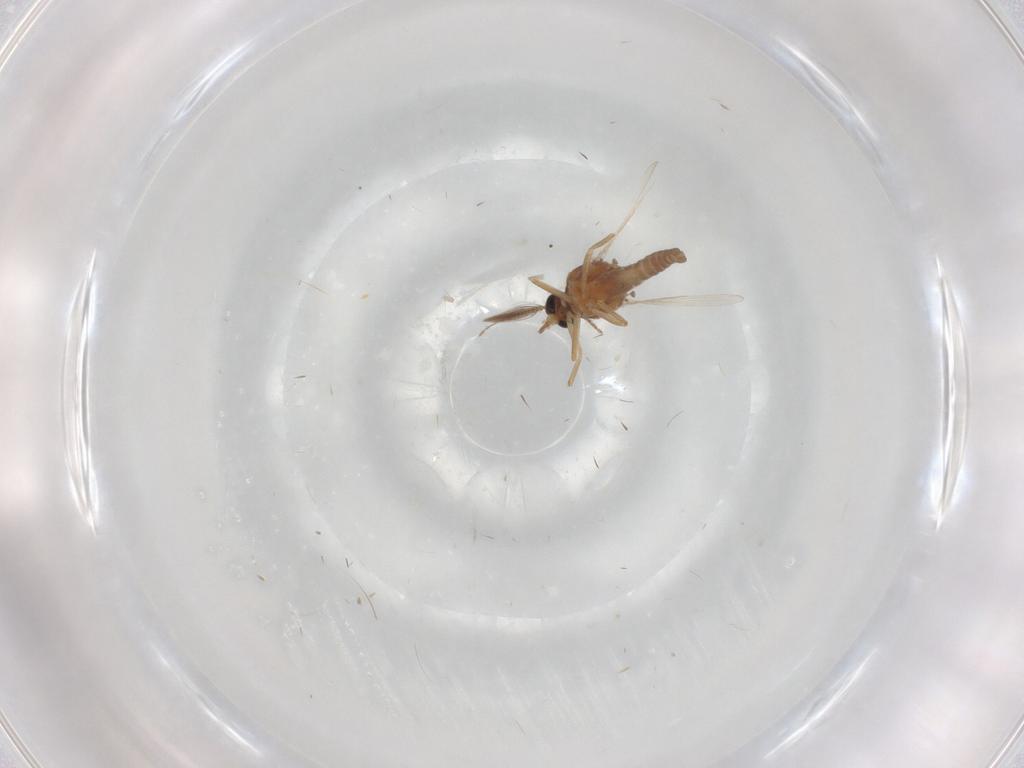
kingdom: Animalia
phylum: Arthropoda
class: Insecta
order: Diptera
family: Ceratopogonidae
